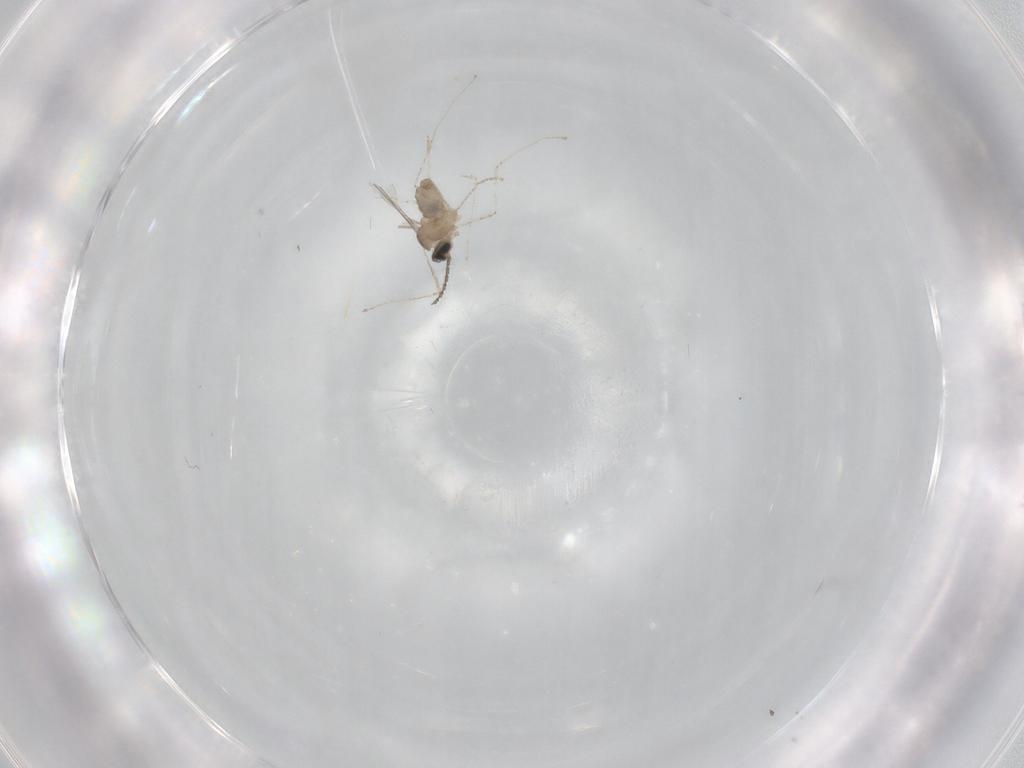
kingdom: Animalia
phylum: Arthropoda
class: Insecta
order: Diptera
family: Cecidomyiidae
